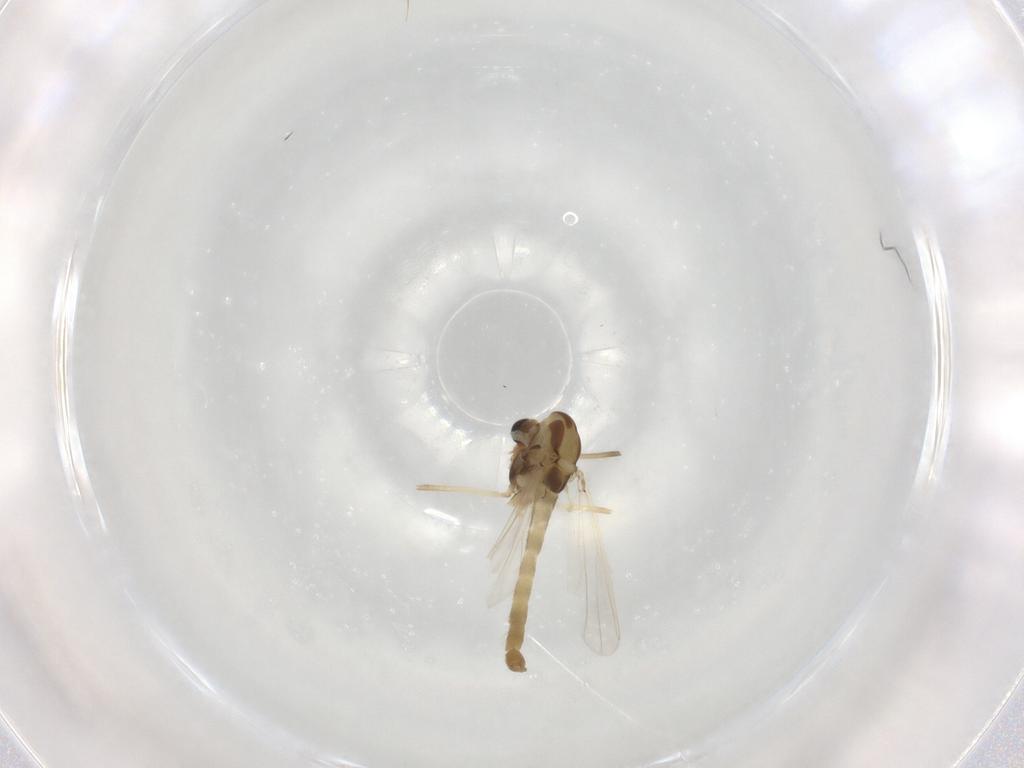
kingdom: Animalia
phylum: Arthropoda
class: Insecta
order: Diptera
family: Chironomidae
